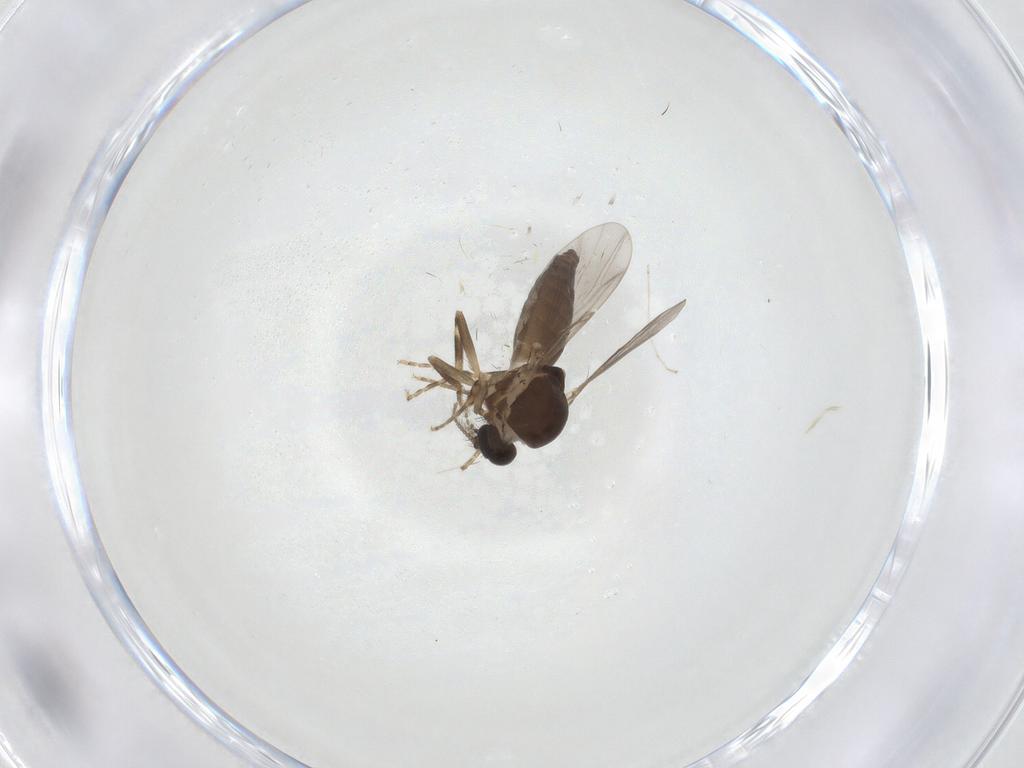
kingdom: Animalia
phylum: Arthropoda
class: Insecta
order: Diptera
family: Ceratopogonidae
